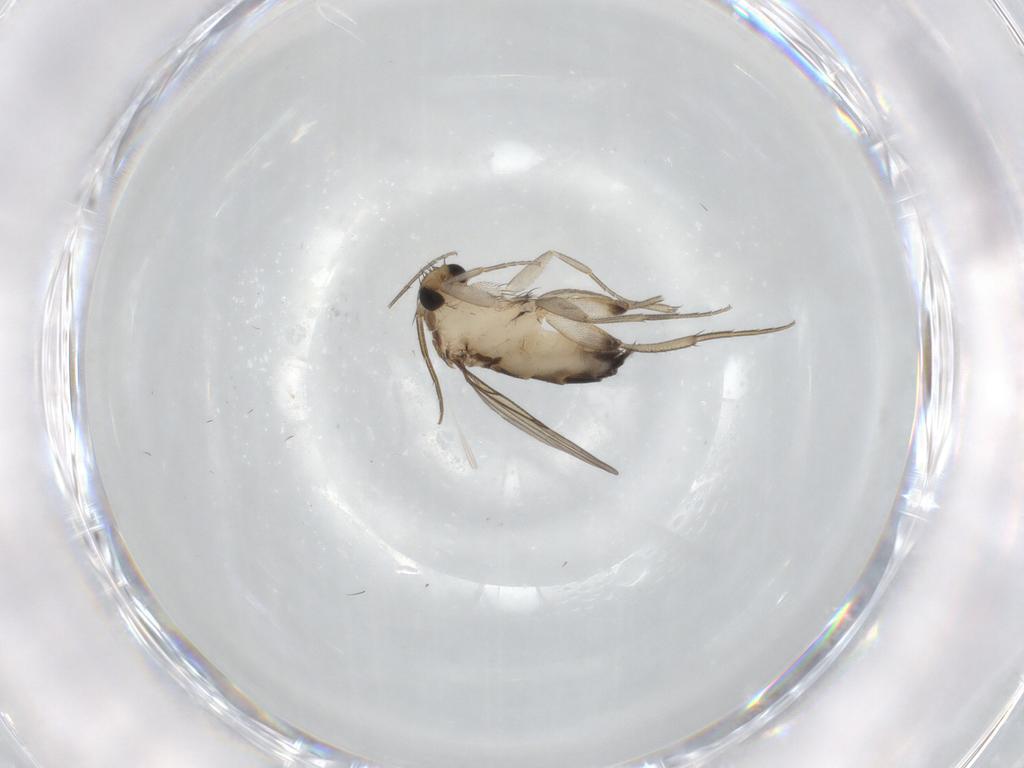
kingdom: Animalia
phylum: Arthropoda
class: Insecta
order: Diptera
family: Phoridae
